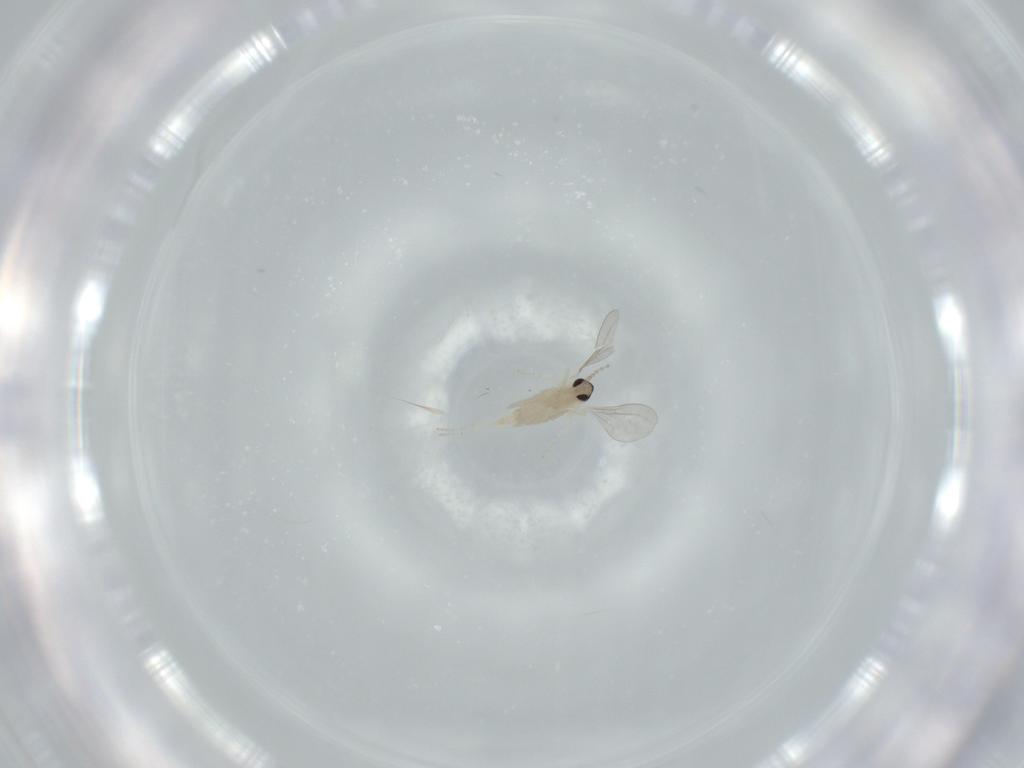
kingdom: Animalia
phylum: Arthropoda
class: Insecta
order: Diptera
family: Cecidomyiidae
